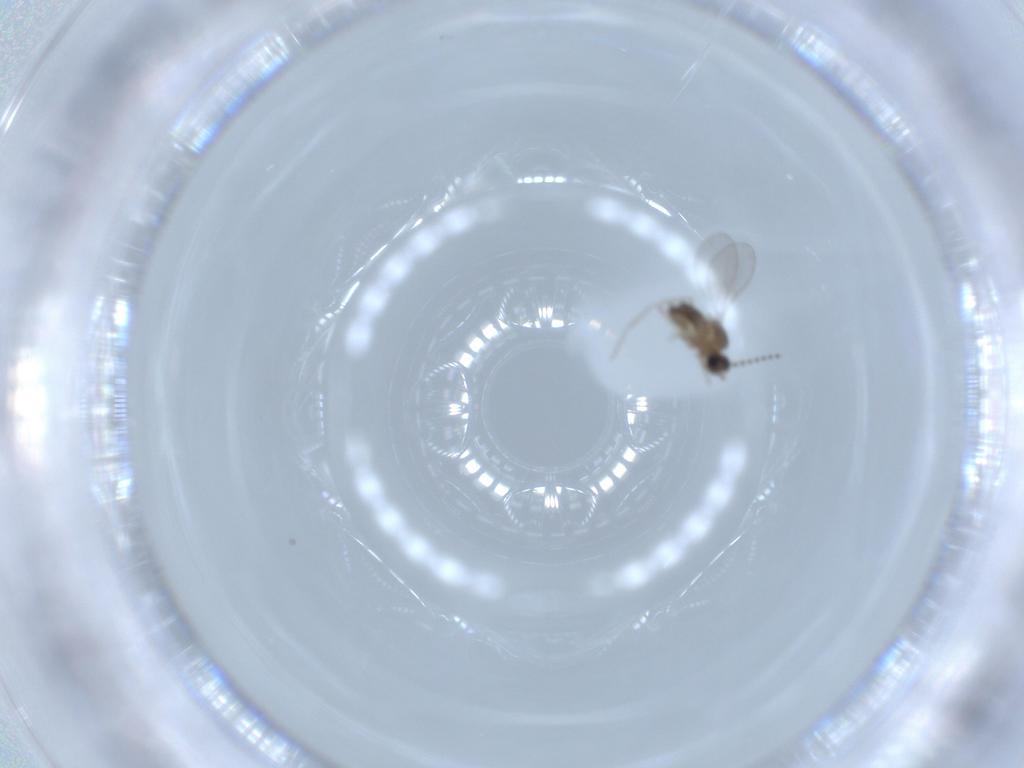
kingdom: Animalia
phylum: Arthropoda
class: Insecta
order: Diptera
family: Cecidomyiidae
